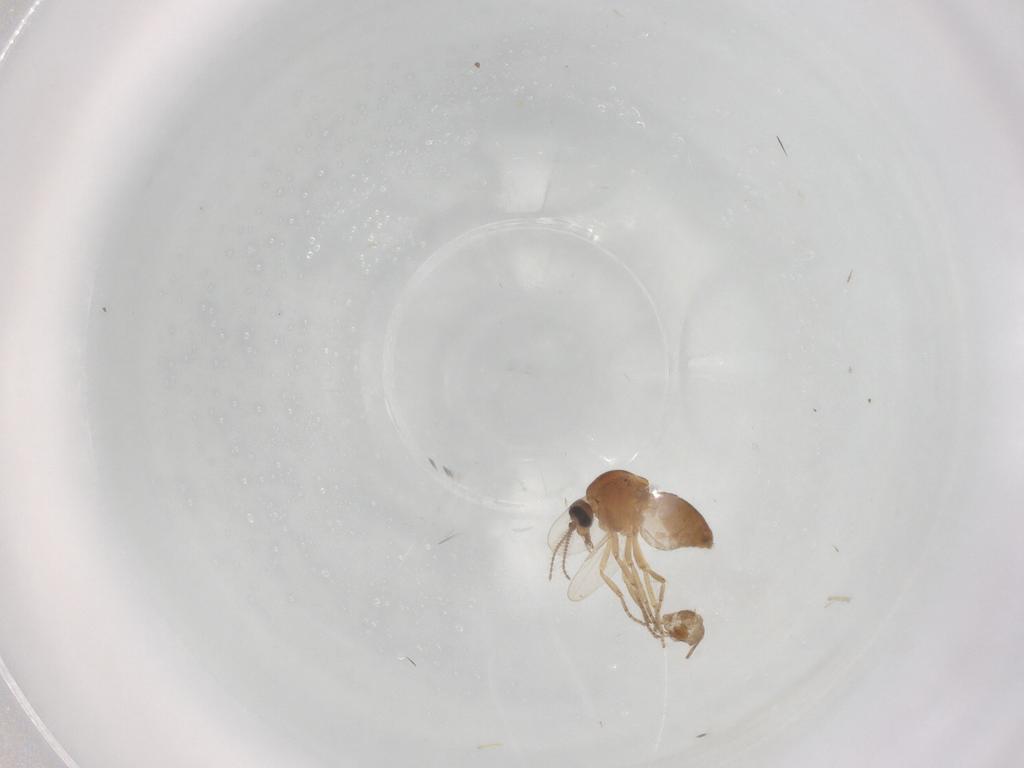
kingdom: Animalia
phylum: Arthropoda
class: Insecta
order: Diptera
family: Ceratopogonidae
